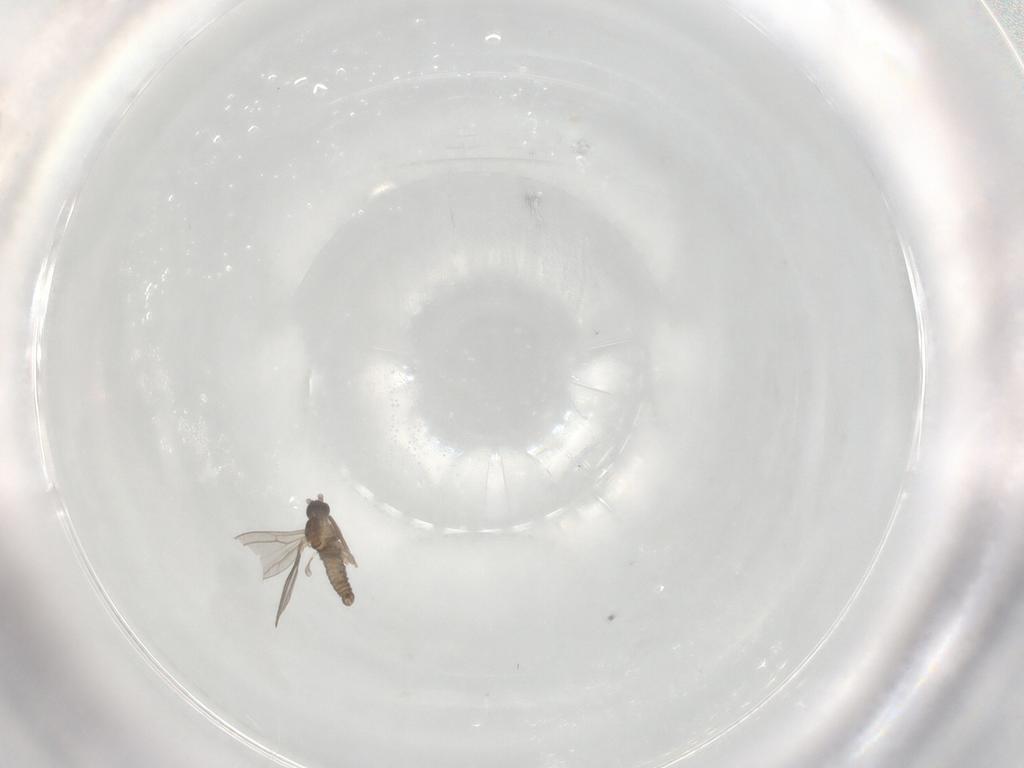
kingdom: Animalia
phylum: Arthropoda
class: Insecta
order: Diptera
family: Cecidomyiidae
